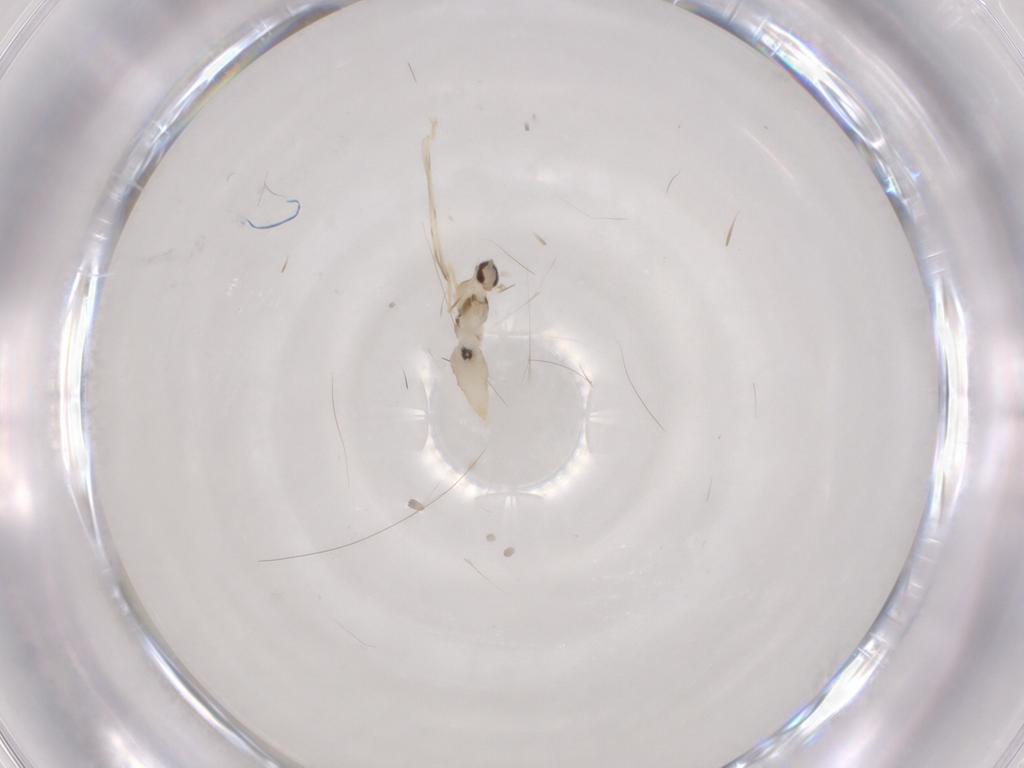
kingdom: Animalia
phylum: Arthropoda
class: Insecta
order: Diptera
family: Cecidomyiidae
